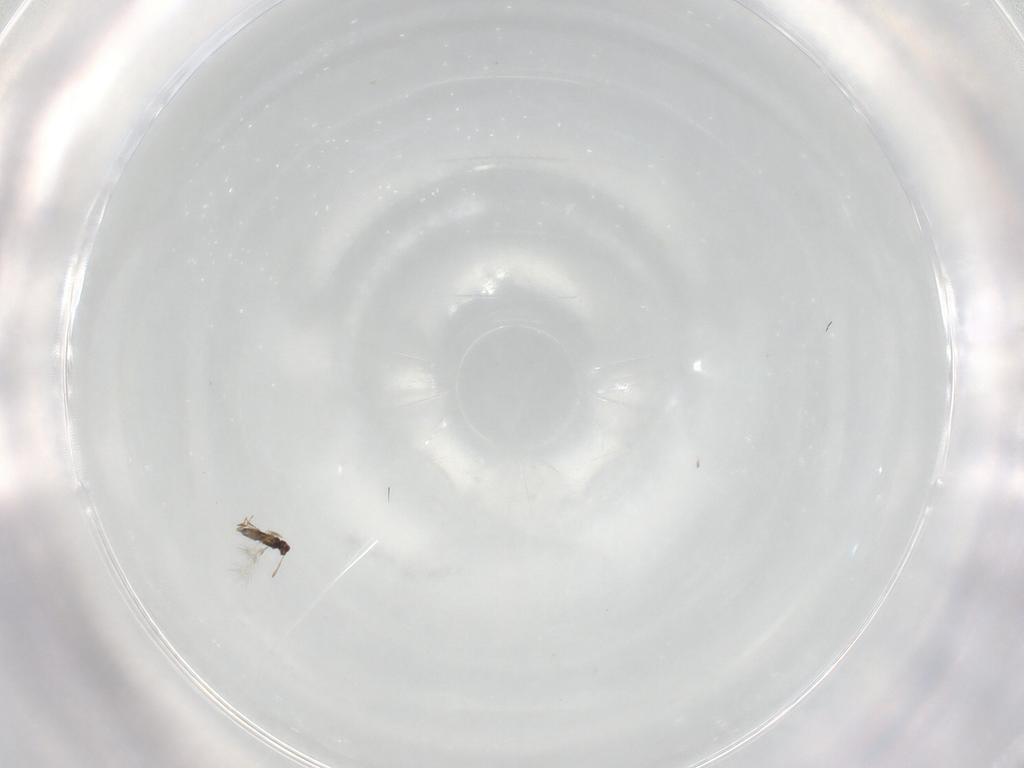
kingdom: Animalia
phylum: Arthropoda
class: Insecta
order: Hymenoptera
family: Mymaridae
